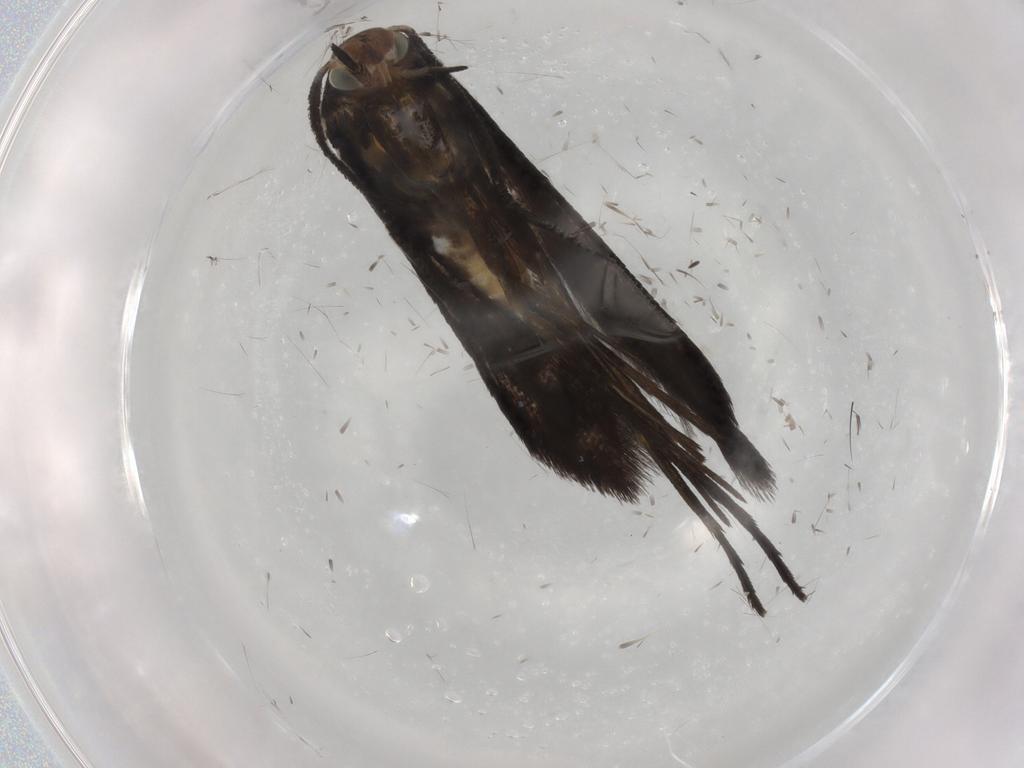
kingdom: Animalia
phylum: Arthropoda
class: Insecta
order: Lepidoptera
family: Schreckensteiniidae
